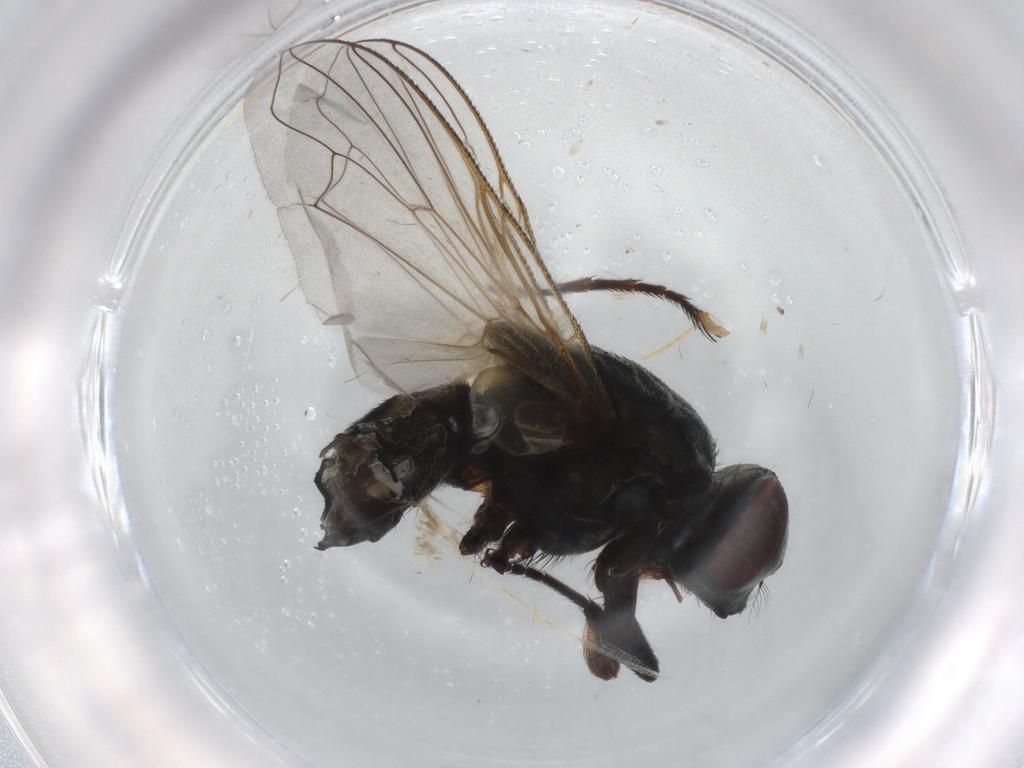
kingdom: Animalia
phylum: Arthropoda
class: Insecta
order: Diptera
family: Muscidae
